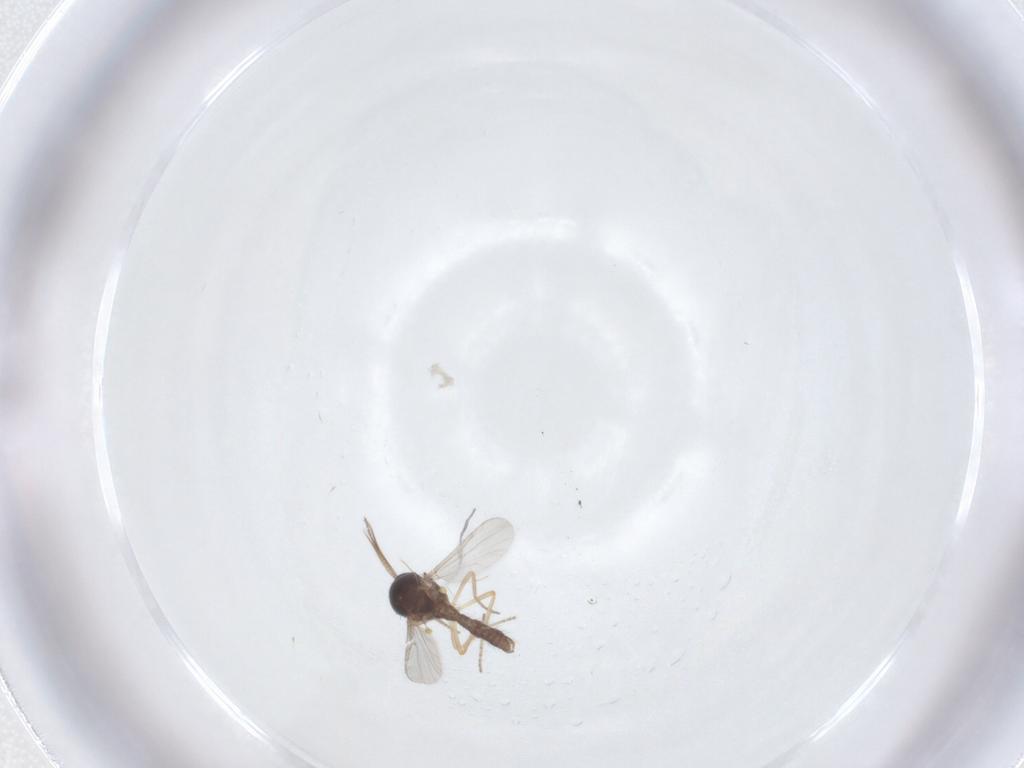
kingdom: Animalia
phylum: Arthropoda
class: Insecta
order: Diptera
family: Ceratopogonidae
